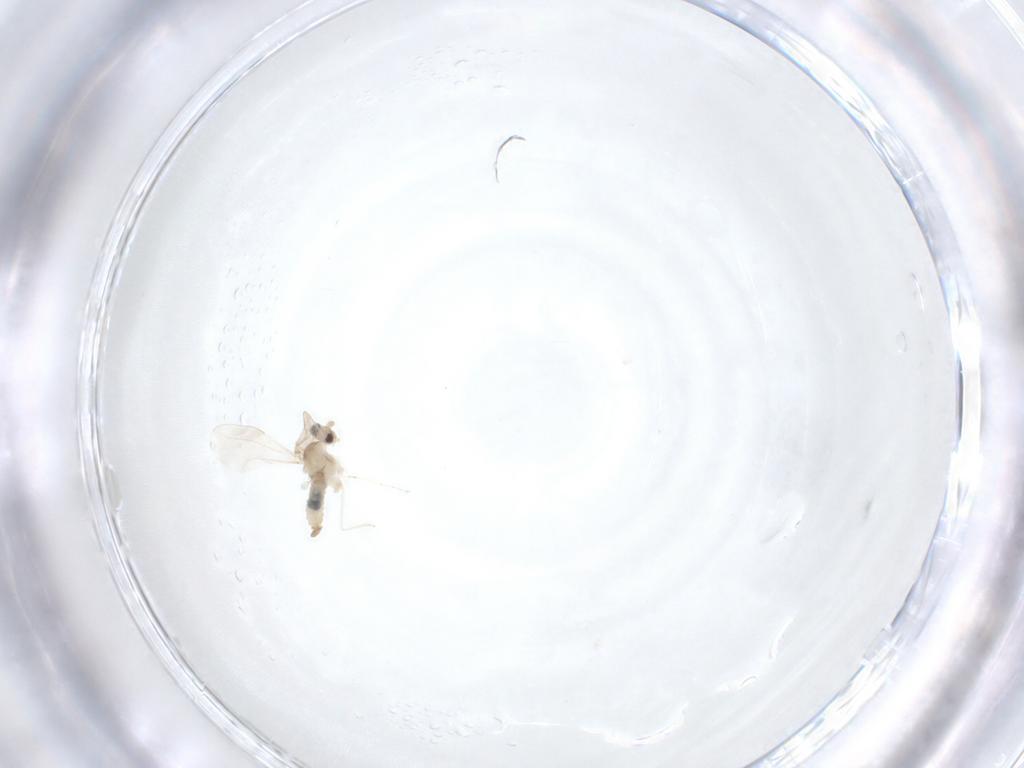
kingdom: Animalia
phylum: Arthropoda
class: Insecta
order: Diptera
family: Cecidomyiidae
